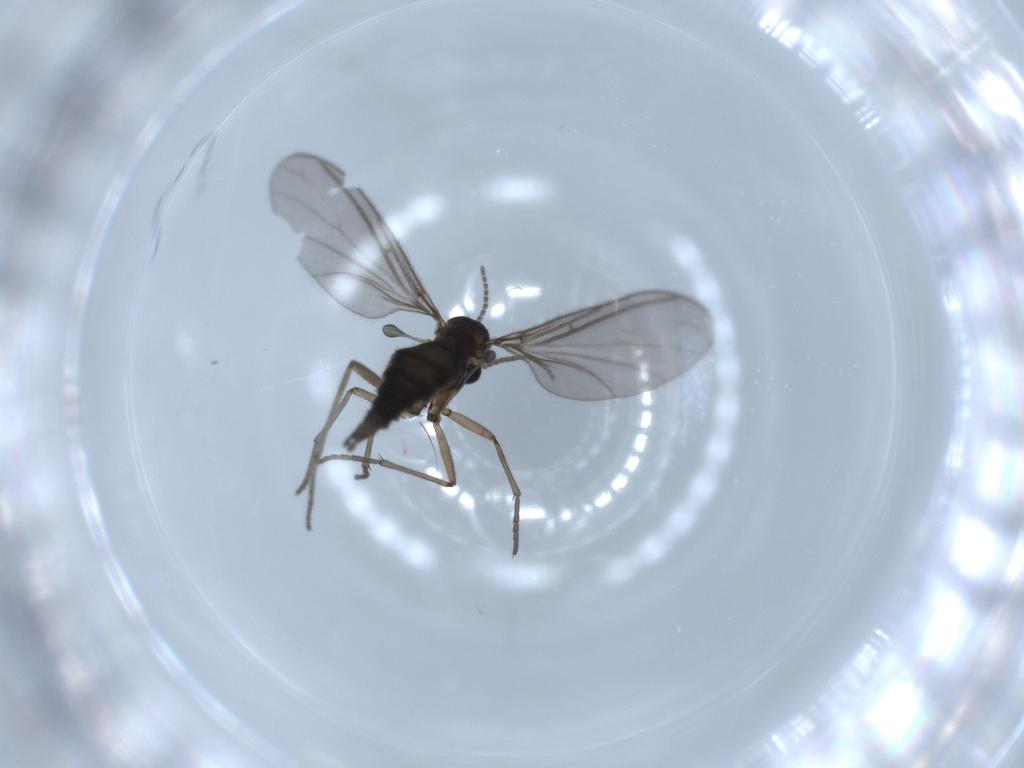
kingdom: Animalia
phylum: Arthropoda
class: Insecta
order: Diptera
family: Sciaridae
